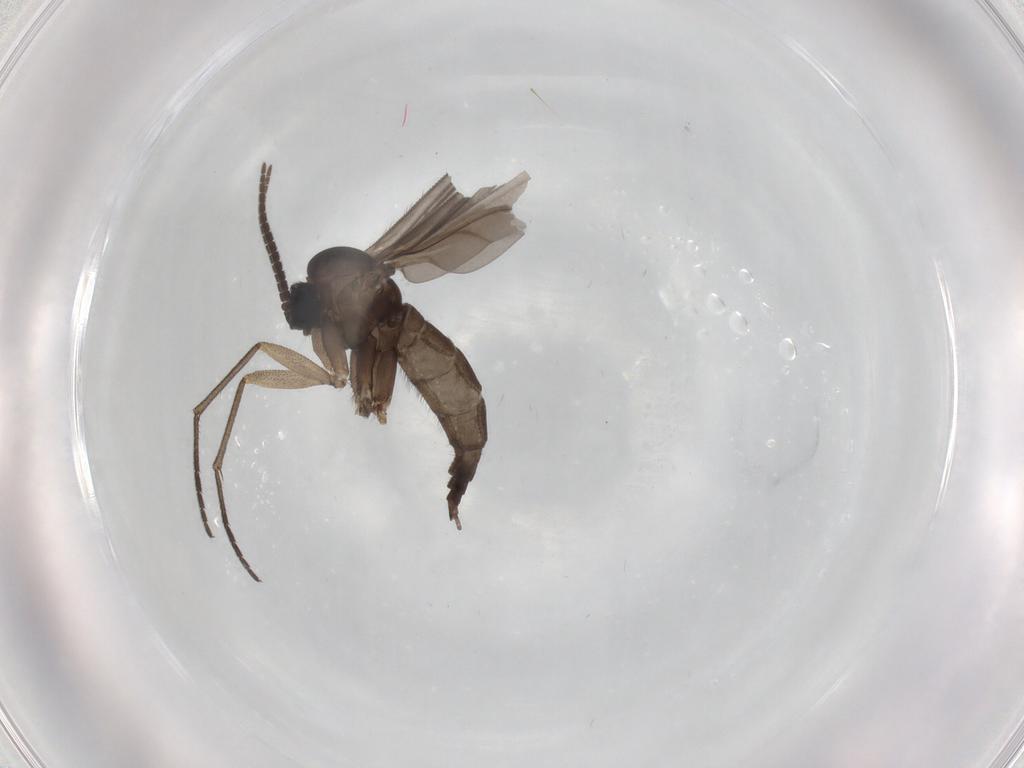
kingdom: Animalia
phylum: Arthropoda
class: Insecta
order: Diptera
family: Sciaridae
